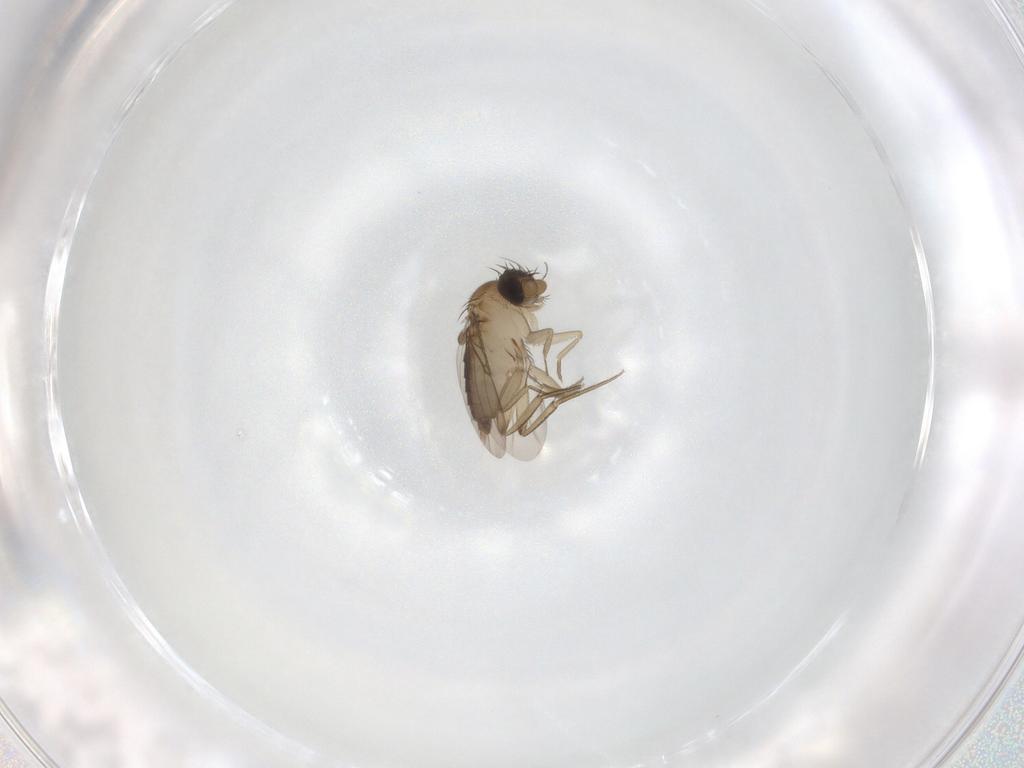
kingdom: Animalia
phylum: Arthropoda
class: Insecta
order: Diptera
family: Phoridae
